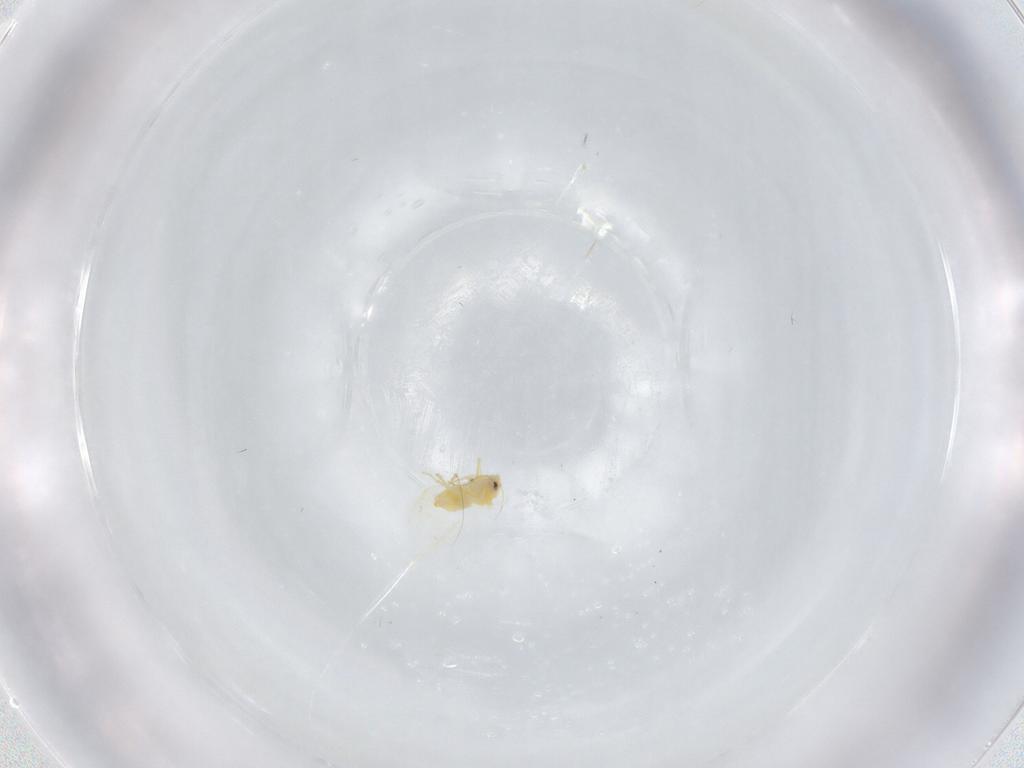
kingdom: Animalia
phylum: Arthropoda
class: Insecta
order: Hemiptera
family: Aleyrodidae
